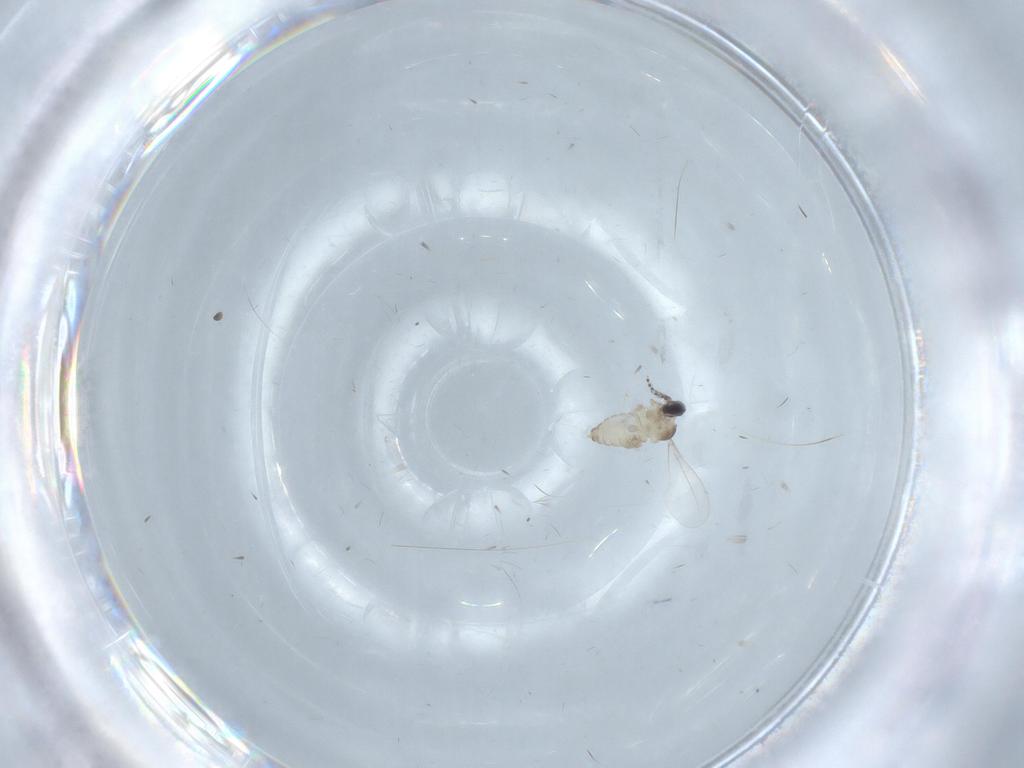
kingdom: Animalia
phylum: Arthropoda
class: Insecta
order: Diptera
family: Tipulidae
